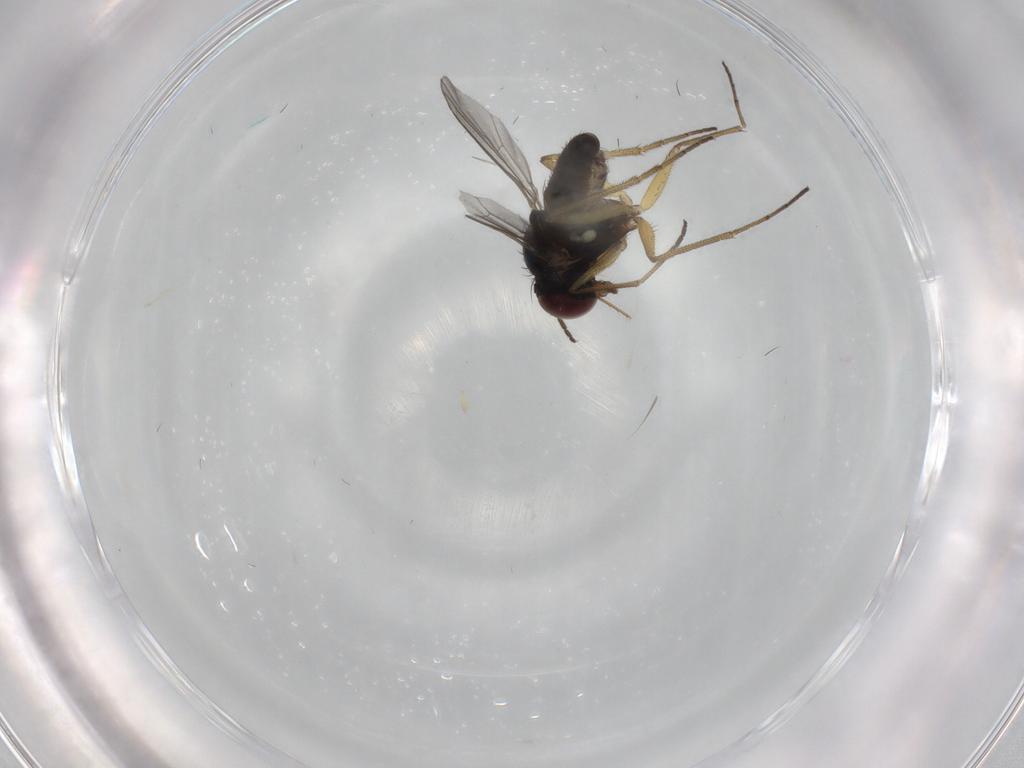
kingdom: Animalia
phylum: Arthropoda
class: Insecta
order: Diptera
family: Dolichopodidae
